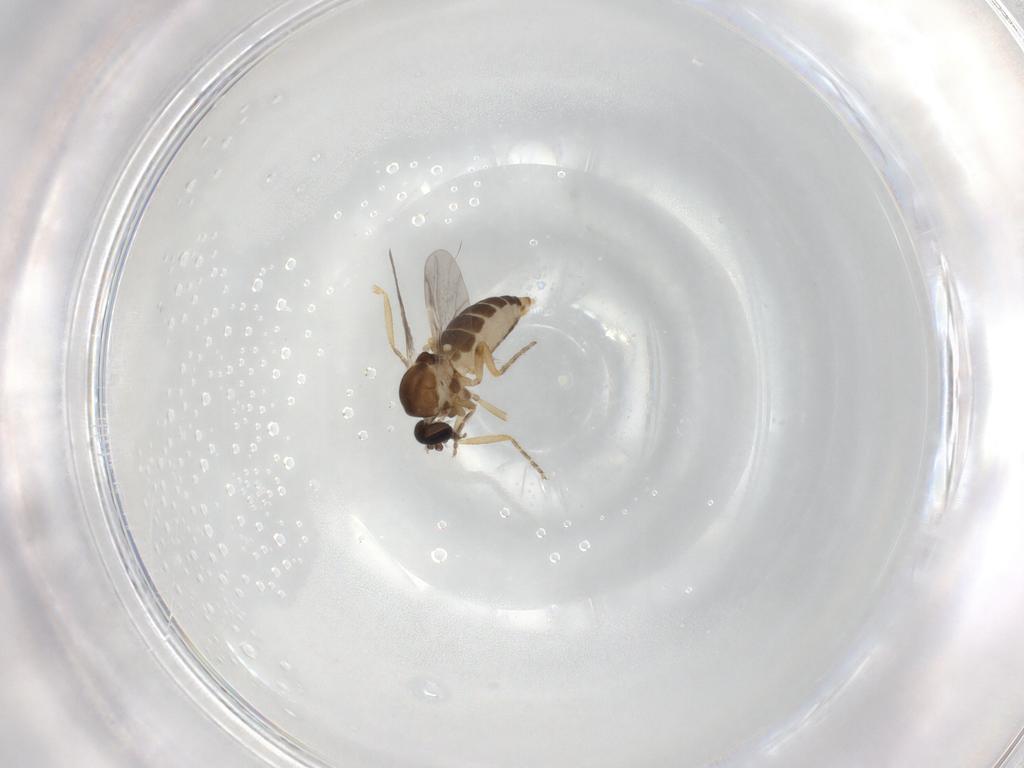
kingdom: Animalia
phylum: Arthropoda
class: Insecta
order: Diptera
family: Ceratopogonidae
